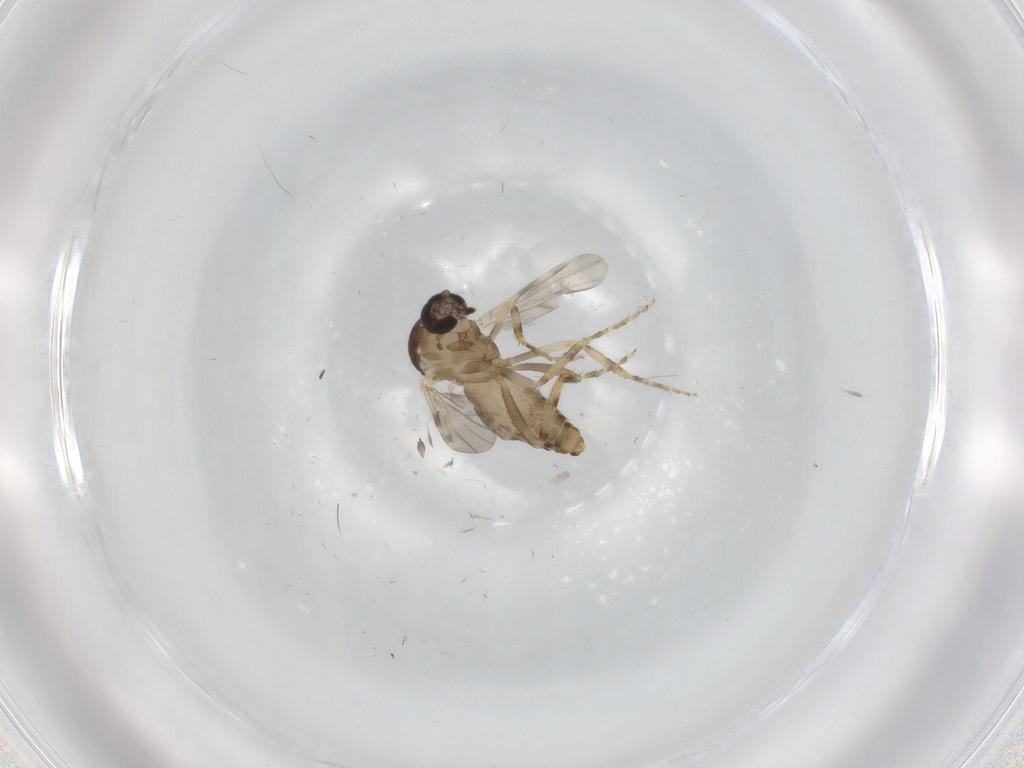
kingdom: Animalia
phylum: Arthropoda
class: Insecta
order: Diptera
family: Ceratopogonidae
